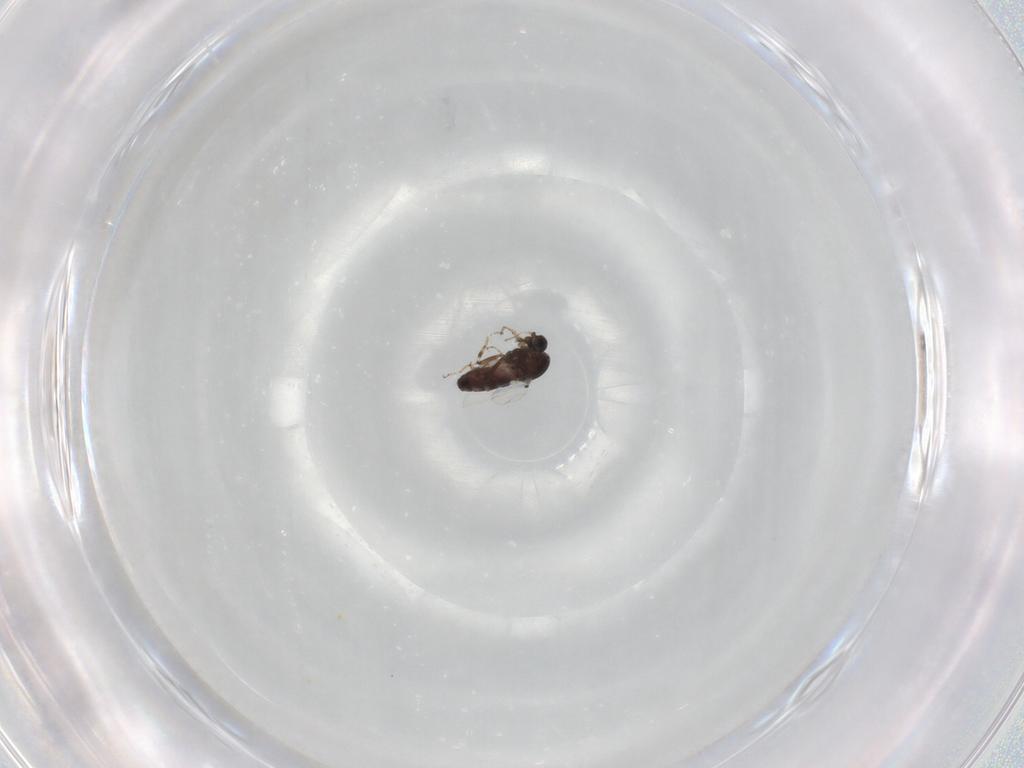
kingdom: Animalia
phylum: Arthropoda
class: Insecta
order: Diptera
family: Ceratopogonidae
